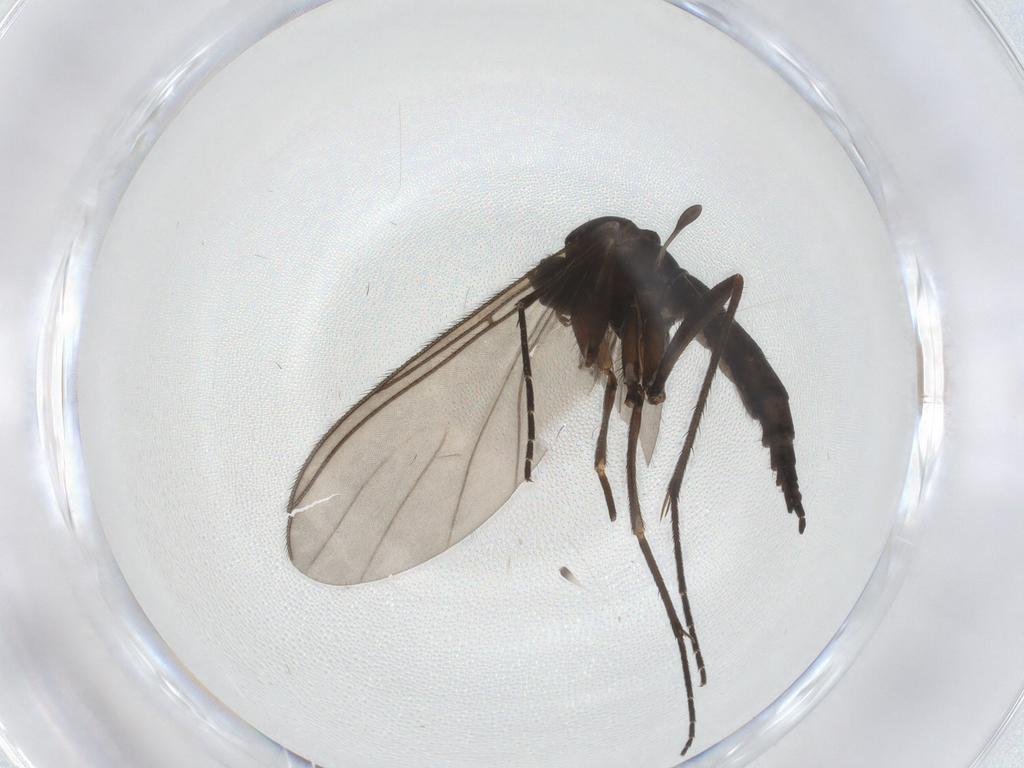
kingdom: Animalia
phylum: Arthropoda
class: Insecta
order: Diptera
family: Sciaridae
